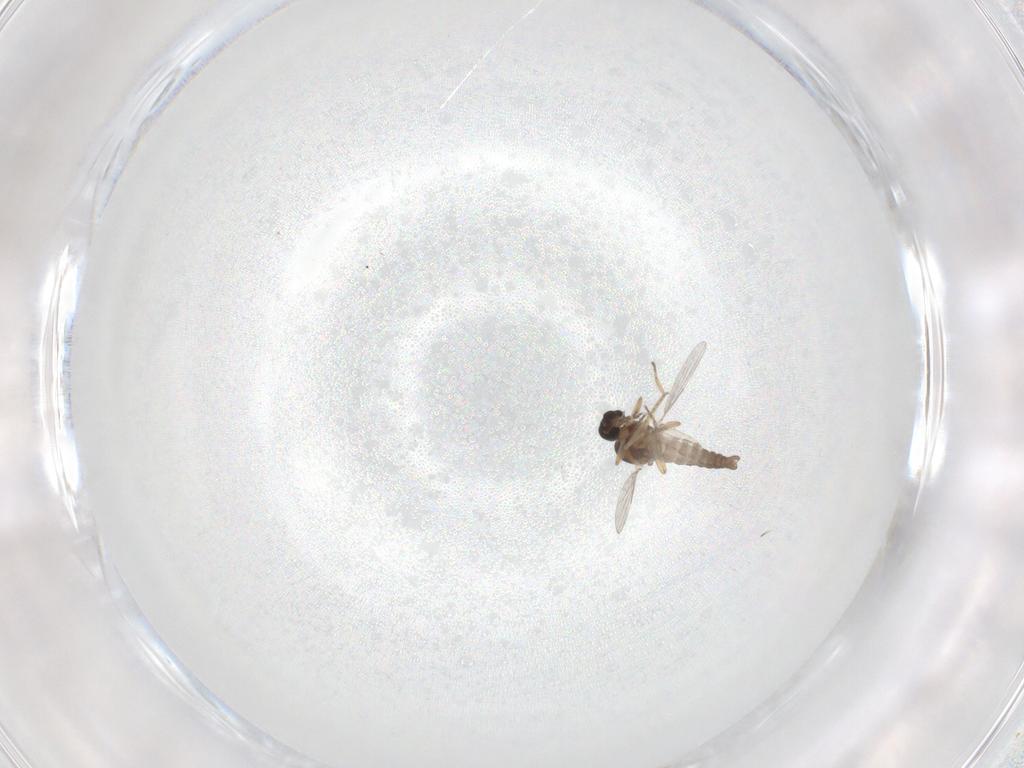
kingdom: Animalia
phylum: Arthropoda
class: Insecta
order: Diptera
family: Ceratopogonidae
